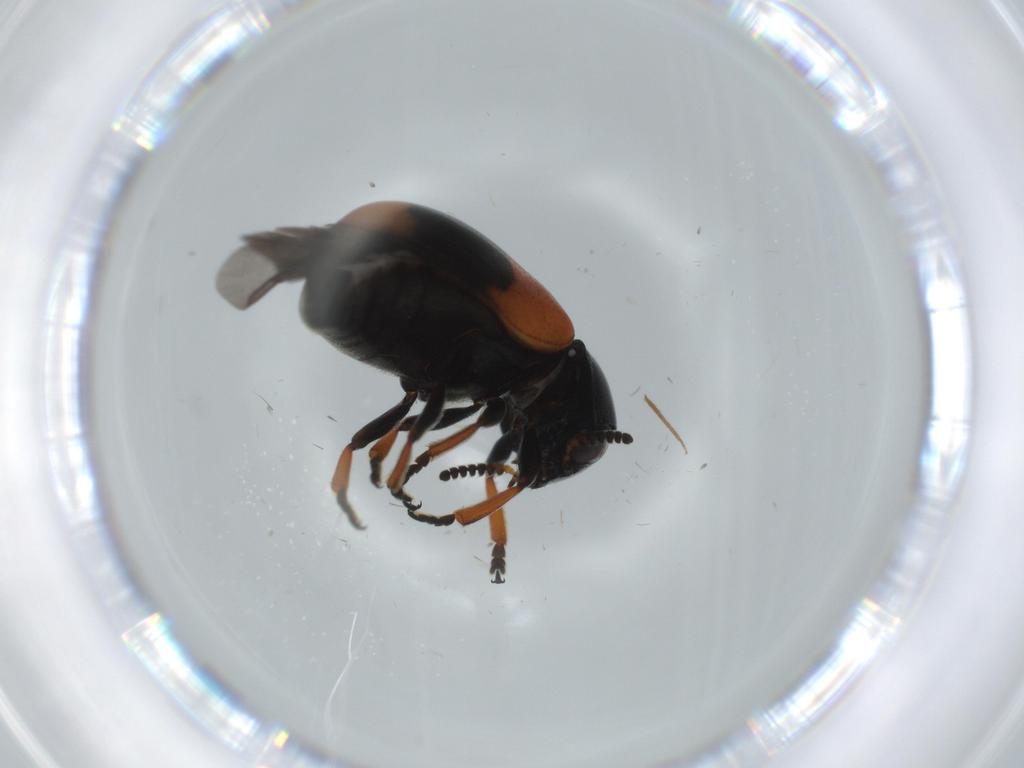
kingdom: Animalia
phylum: Arthropoda
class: Insecta
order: Coleoptera
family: Chrysomelidae
